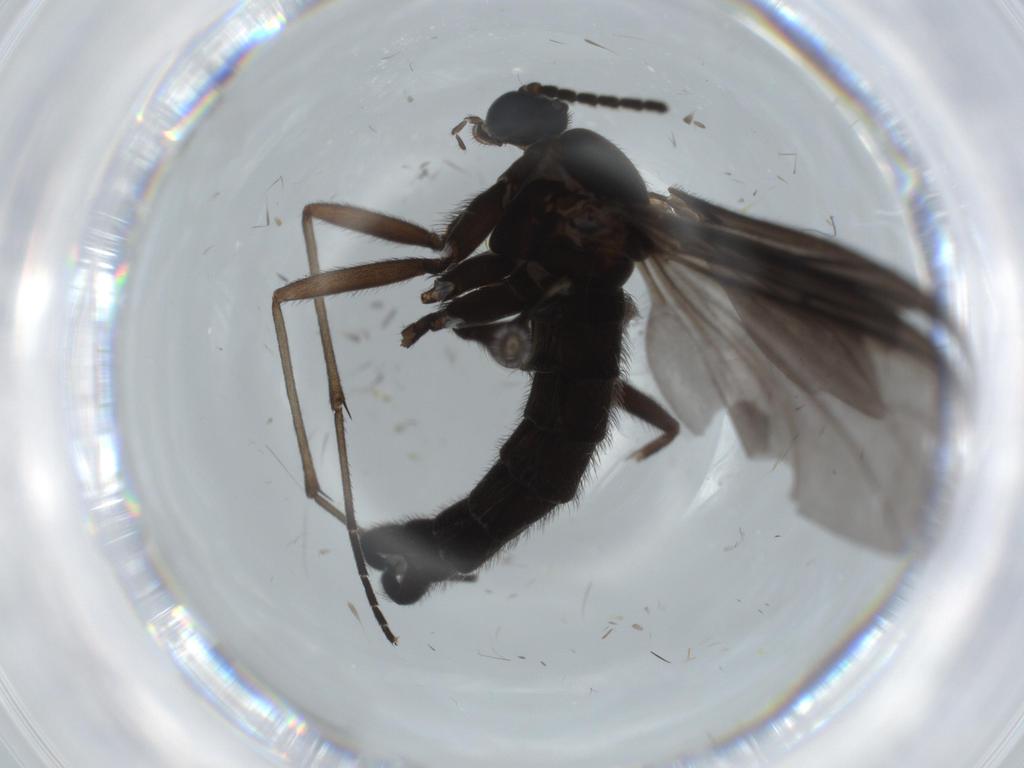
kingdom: Animalia
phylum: Arthropoda
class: Insecta
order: Diptera
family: Sciaridae
